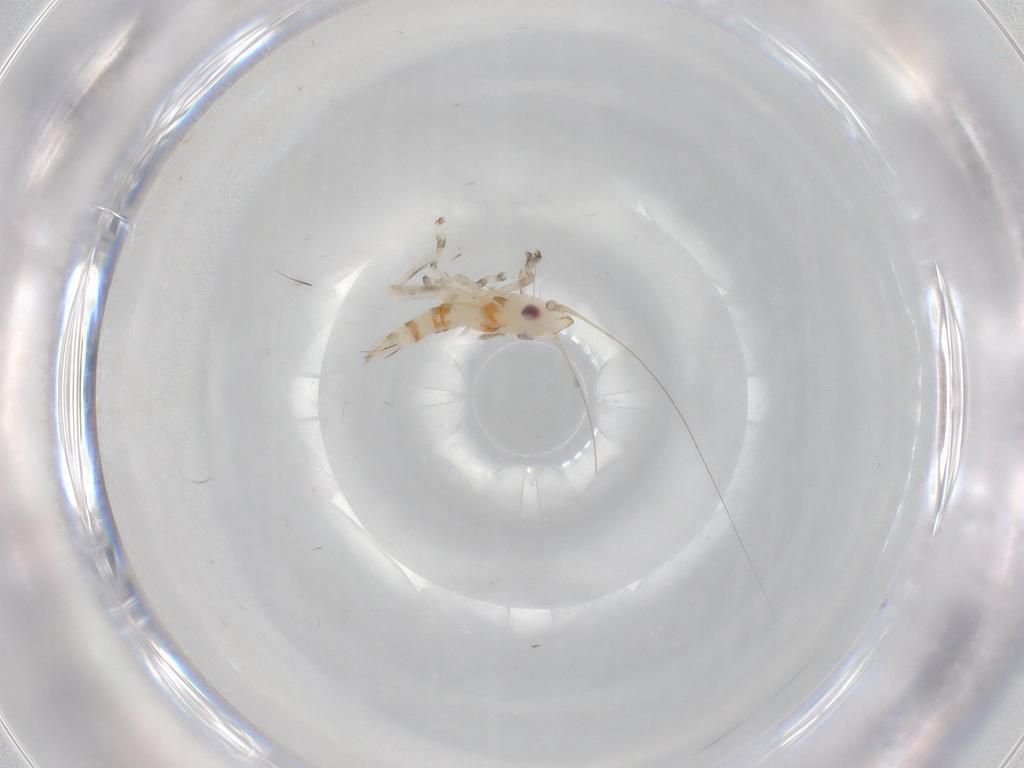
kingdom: Animalia
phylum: Arthropoda
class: Insecta
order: Hemiptera
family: Cicadellidae
